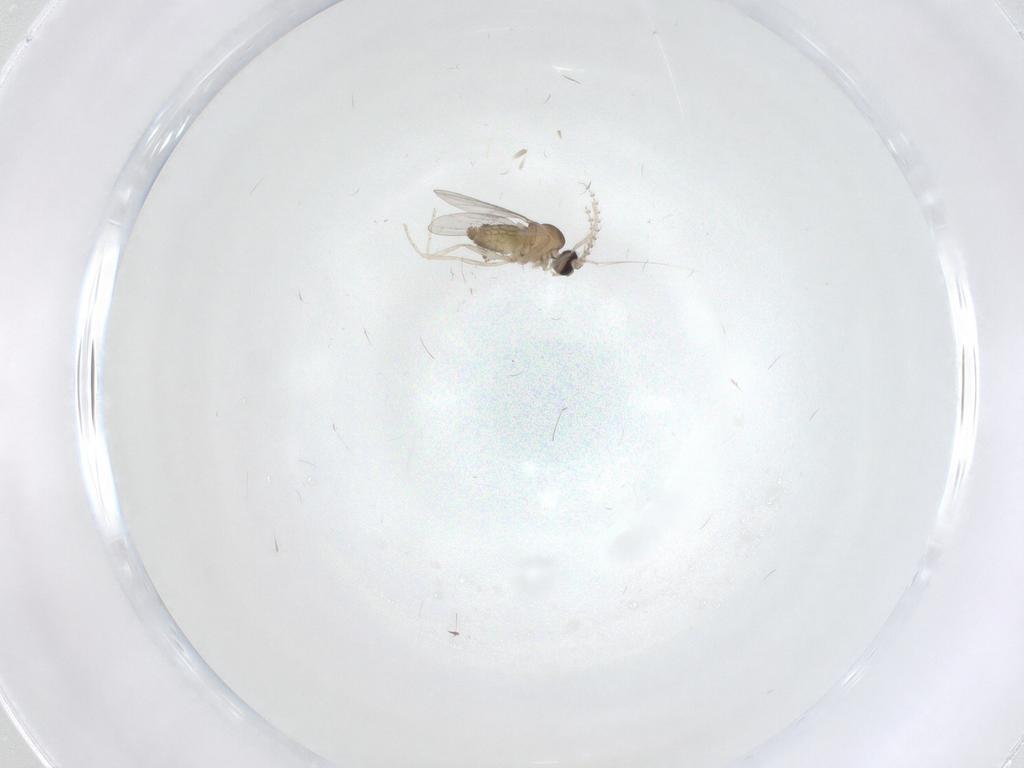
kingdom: Animalia
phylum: Arthropoda
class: Insecta
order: Diptera
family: Cecidomyiidae
